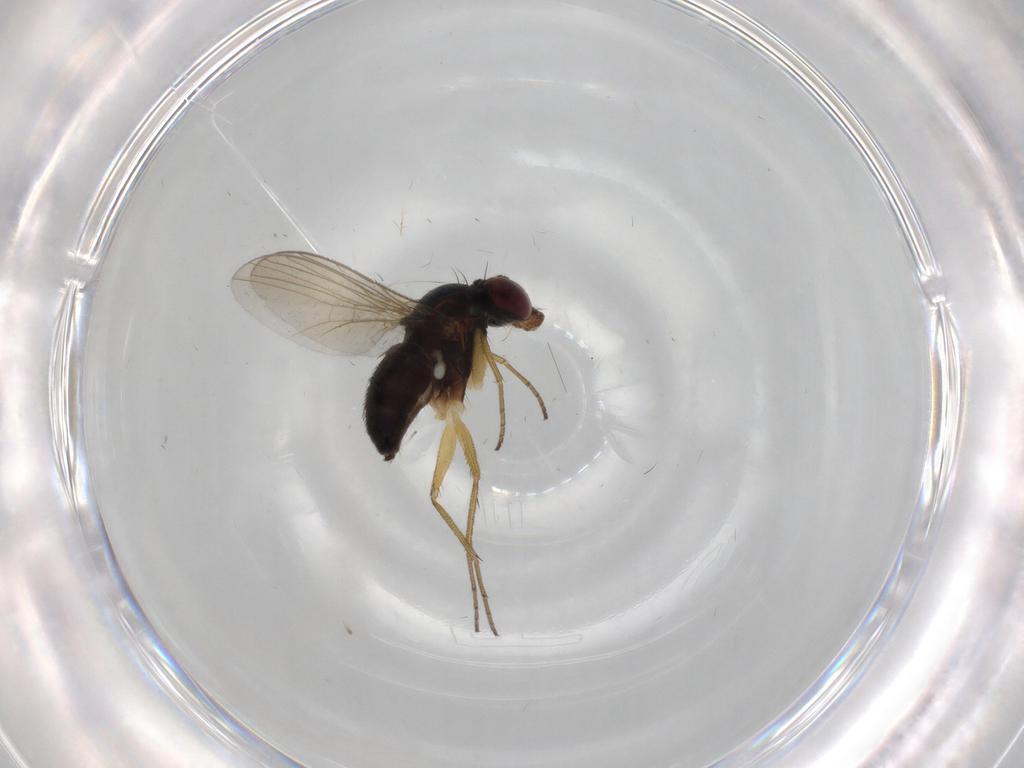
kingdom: Animalia
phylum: Arthropoda
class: Insecta
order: Diptera
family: Dolichopodidae
